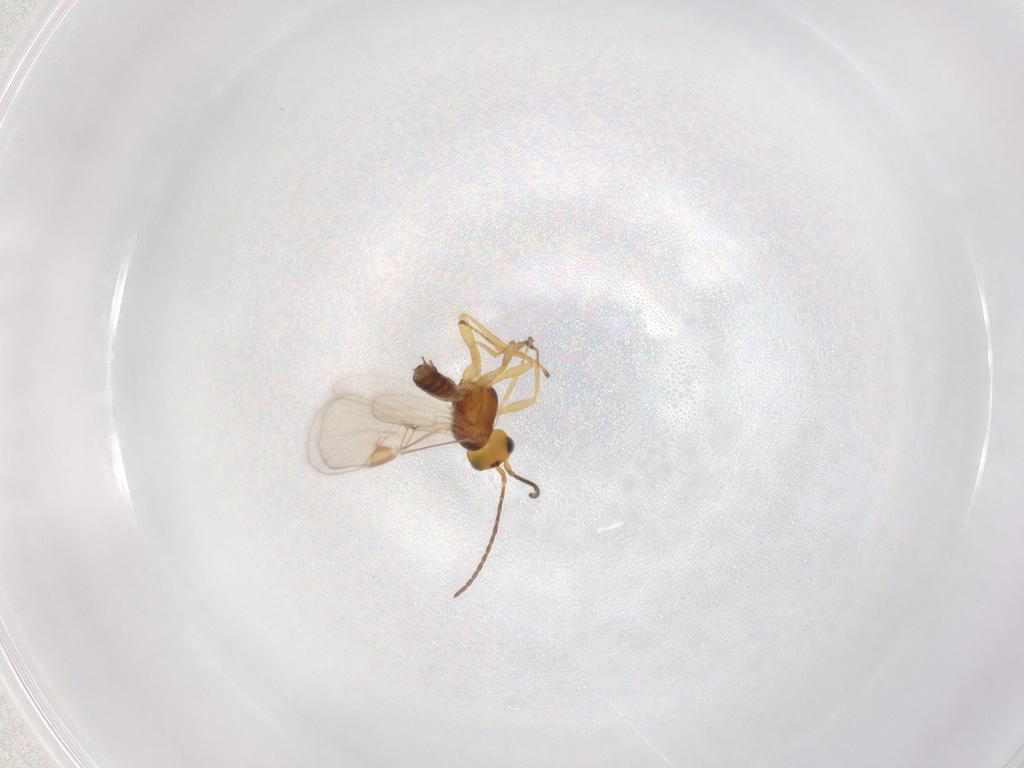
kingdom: Animalia
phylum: Arthropoda
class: Insecta
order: Hymenoptera
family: Braconidae
